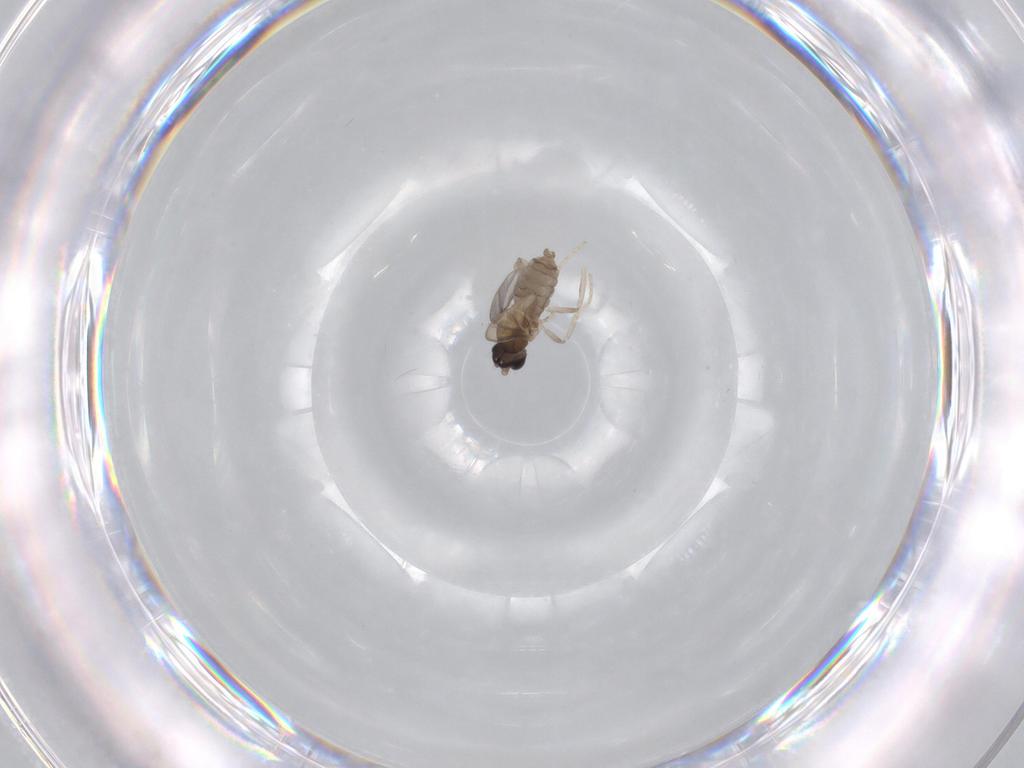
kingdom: Animalia
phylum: Arthropoda
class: Insecta
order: Diptera
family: Cecidomyiidae
